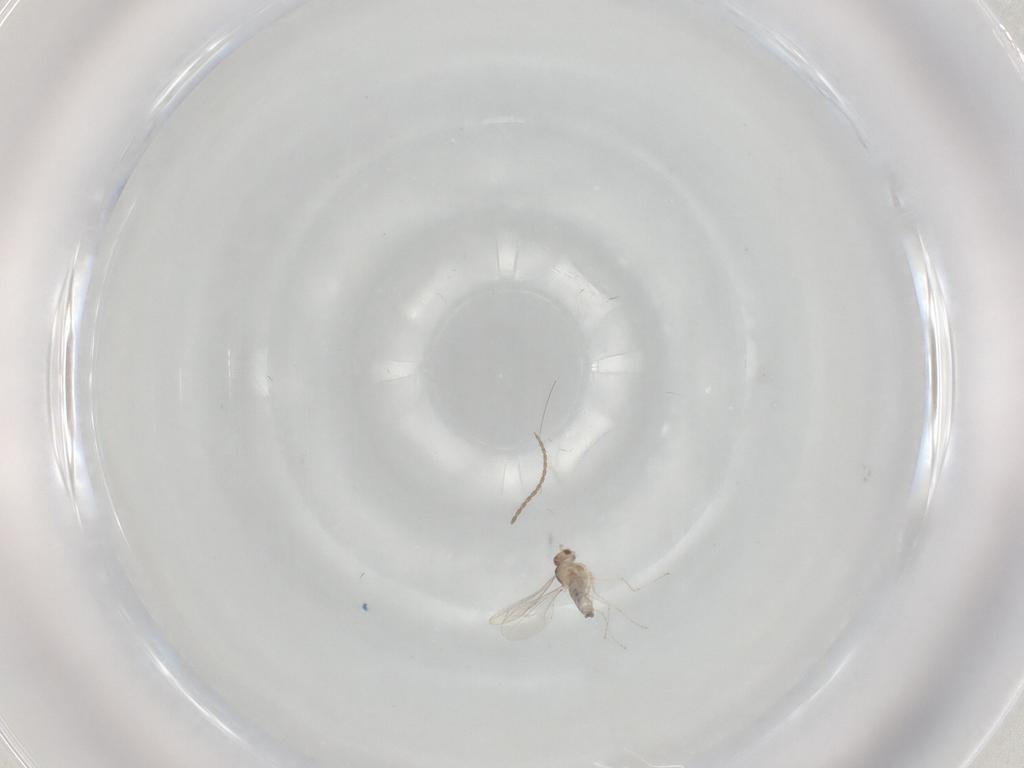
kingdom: Animalia
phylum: Arthropoda
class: Insecta
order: Diptera
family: Cecidomyiidae
